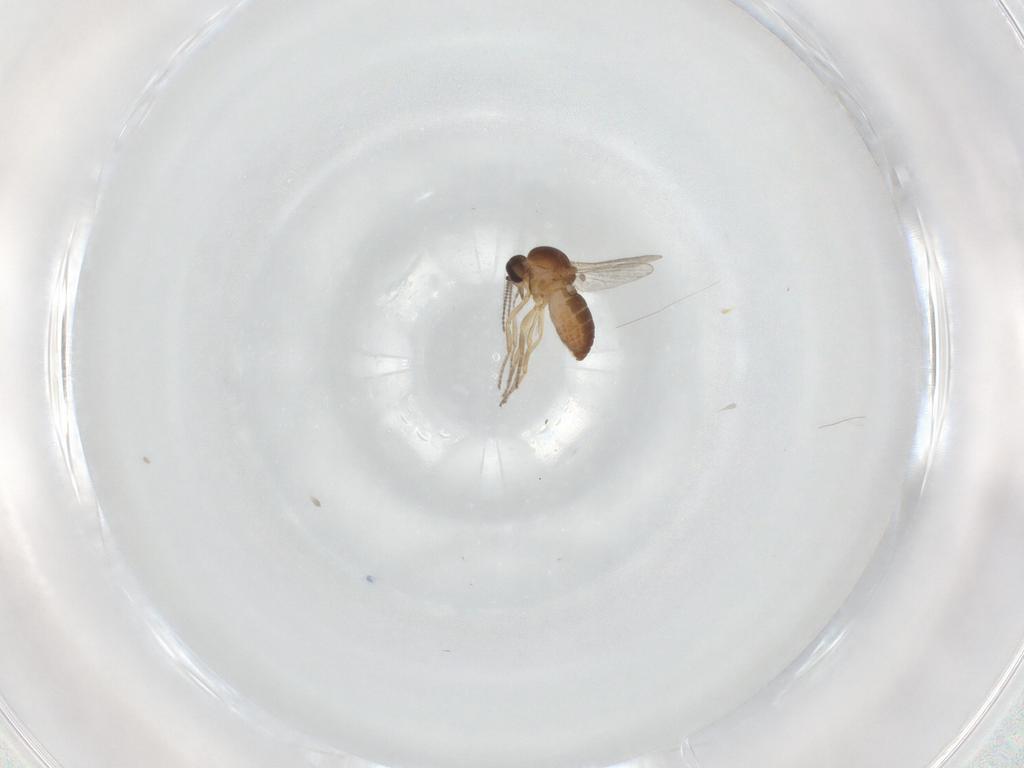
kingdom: Animalia
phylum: Arthropoda
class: Insecta
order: Diptera
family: Ceratopogonidae
